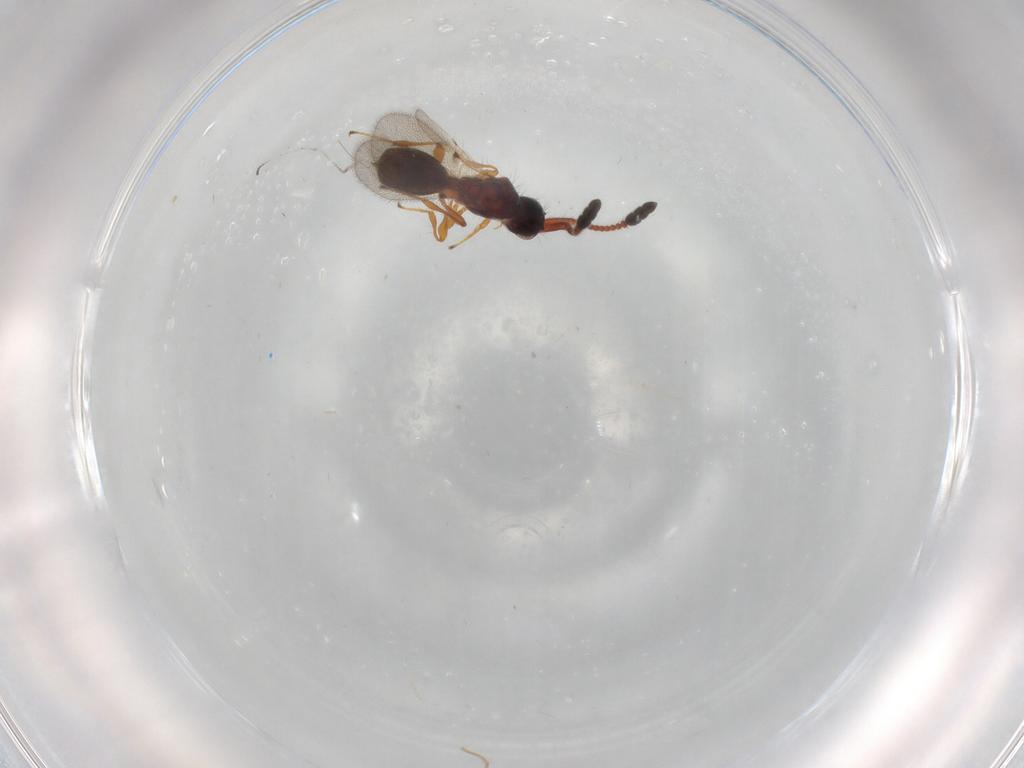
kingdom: Animalia
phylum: Arthropoda
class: Insecta
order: Hymenoptera
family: Diapriidae
